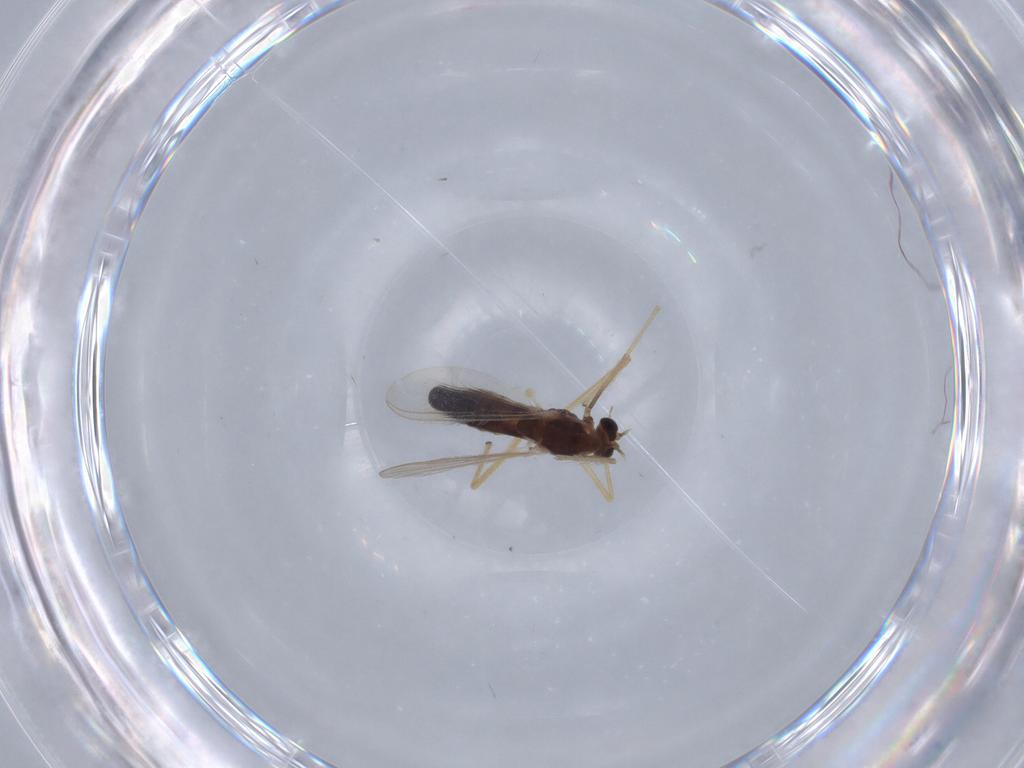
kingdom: Animalia
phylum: Arthropoda
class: Insecta
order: Diptera
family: Chironomidae
